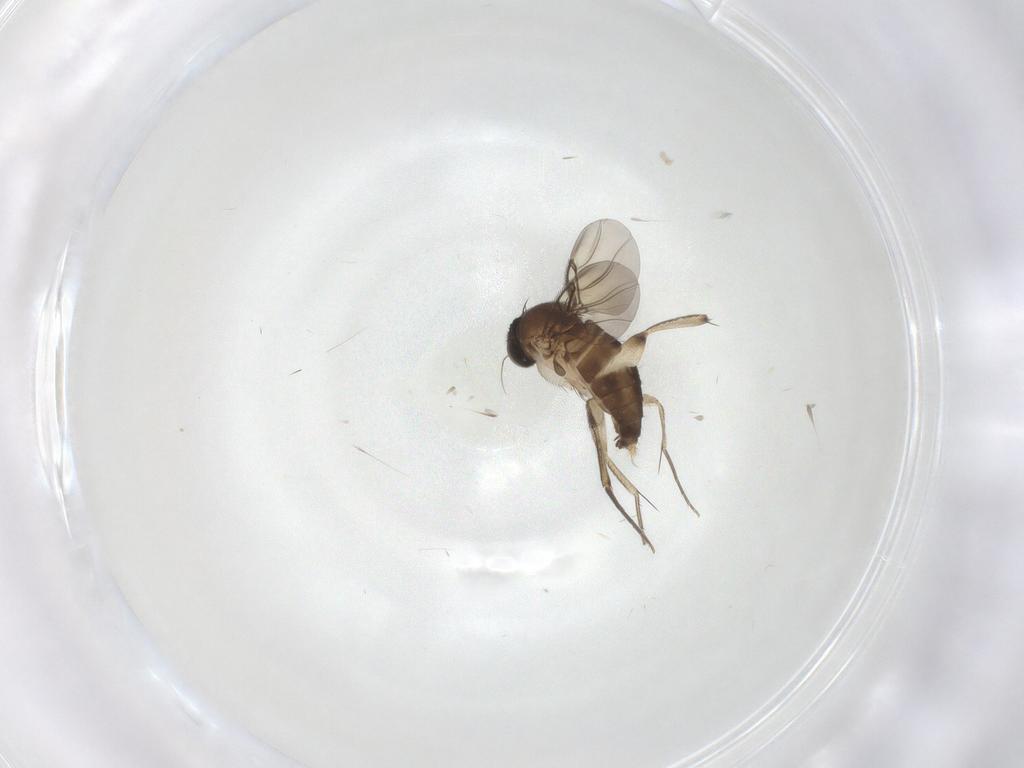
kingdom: Animalia
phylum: Arthropoda
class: Insecta
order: Diptera
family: Phoridae
